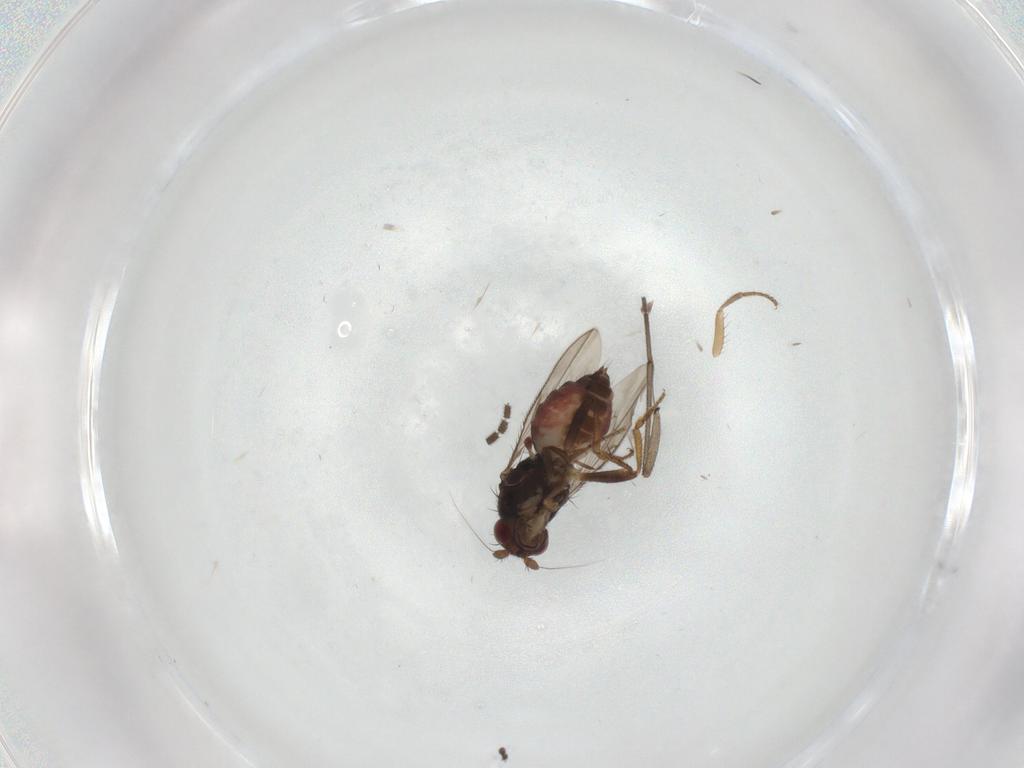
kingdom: Animalia
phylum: Arthropoda
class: Insecta
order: Diptera
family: Sphaeroceridae
